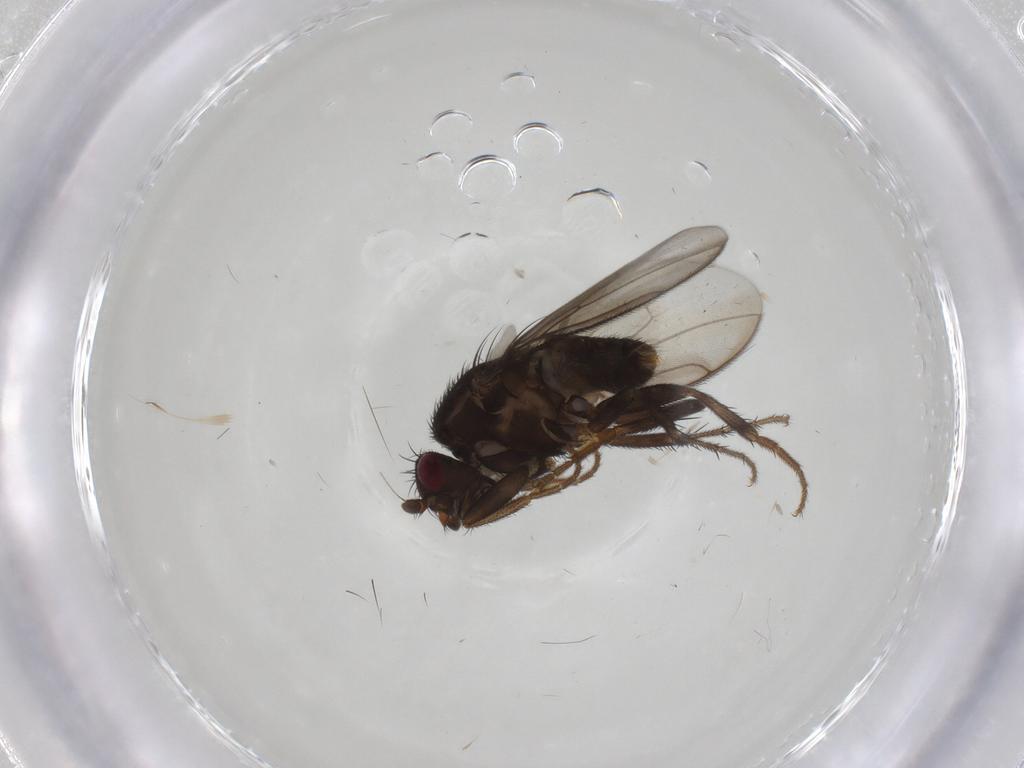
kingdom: Animalia
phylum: Arthropoda
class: Insecta
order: Diptera
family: Sphaeroceridae
